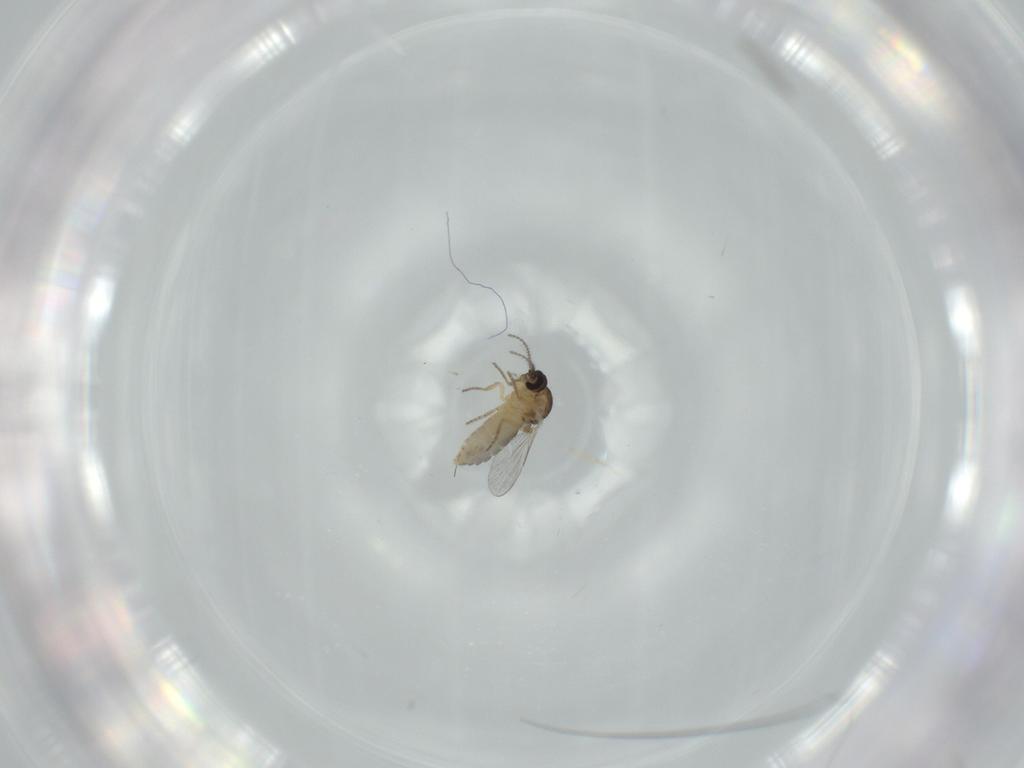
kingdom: Animalia
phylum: Arthropoda
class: Insecta
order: Diptera
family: Ceratopogonidae
